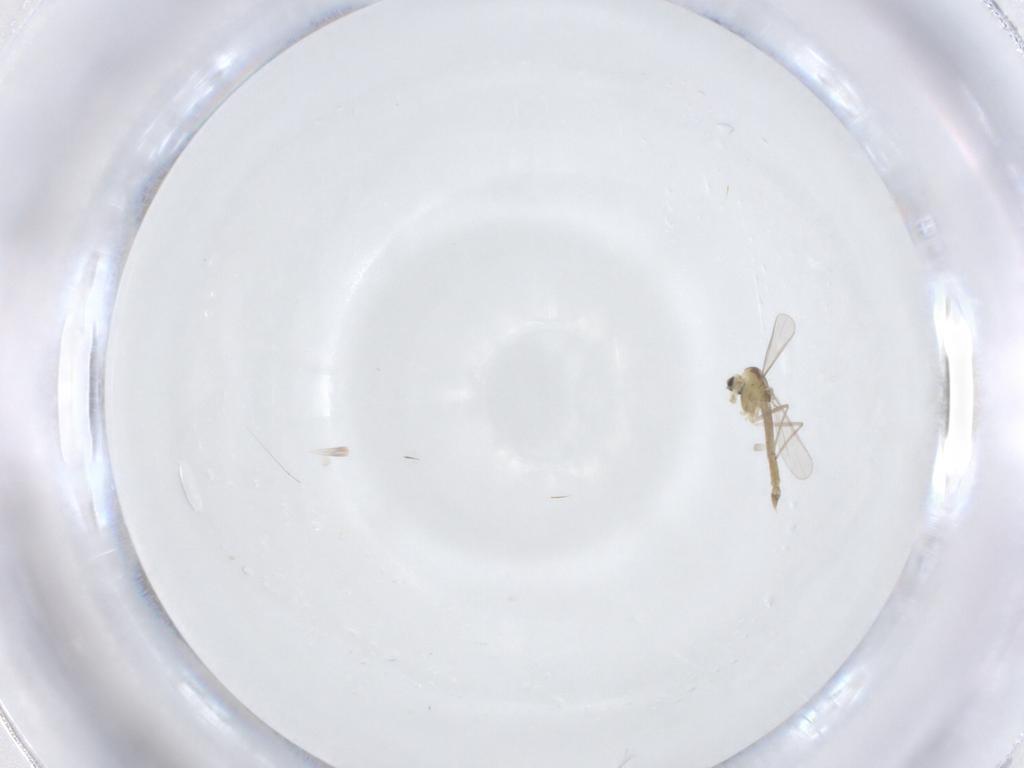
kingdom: Animalia
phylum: Arthropoda
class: Insecta
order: Diptera
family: Chironomidae
